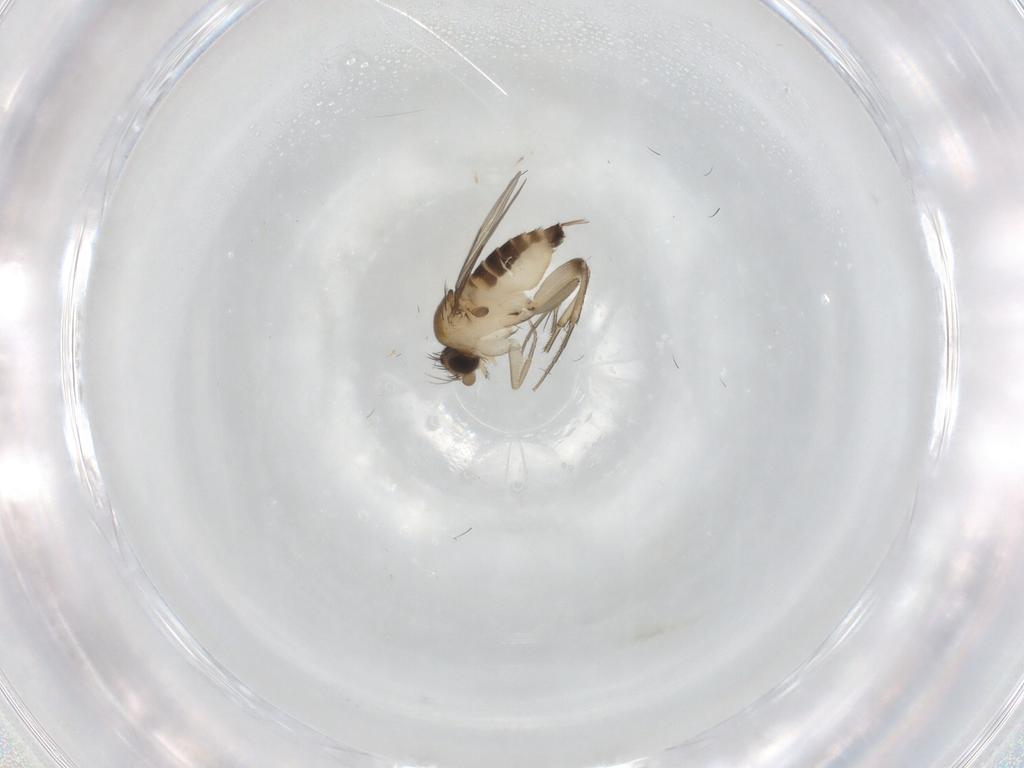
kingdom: Animalia
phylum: Arthropoda
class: Insecta
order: Diptera
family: Phoridae
